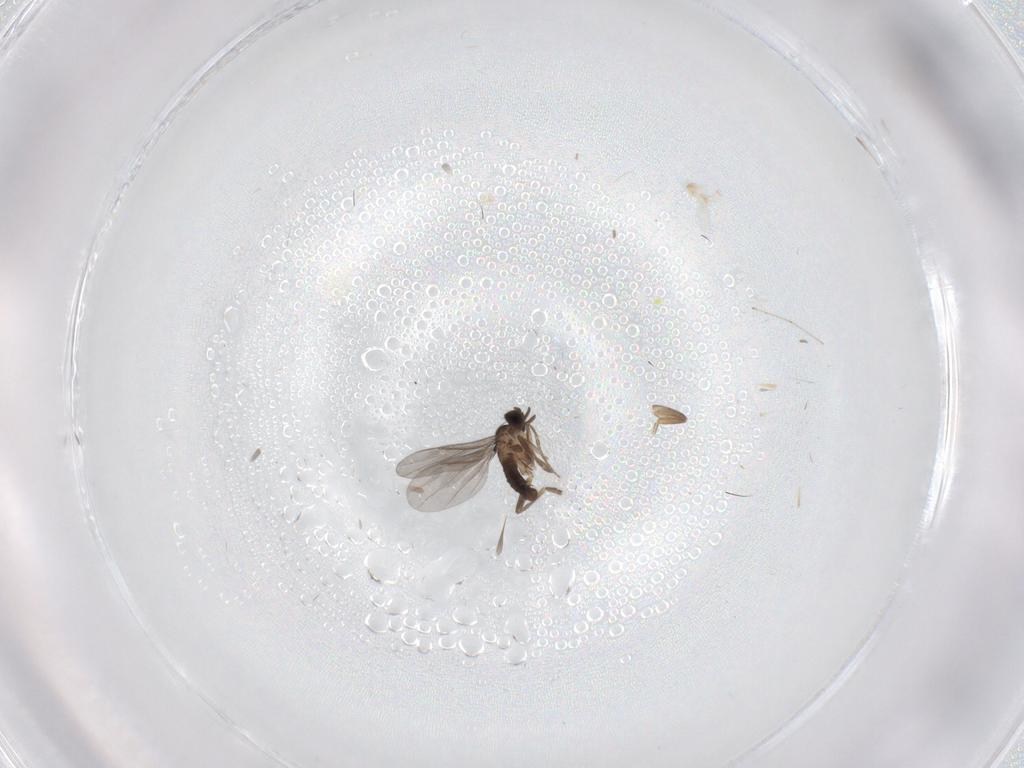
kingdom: Animalia
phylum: Arthropoda
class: Insecta
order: Diptera
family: Cecidomyiidae
